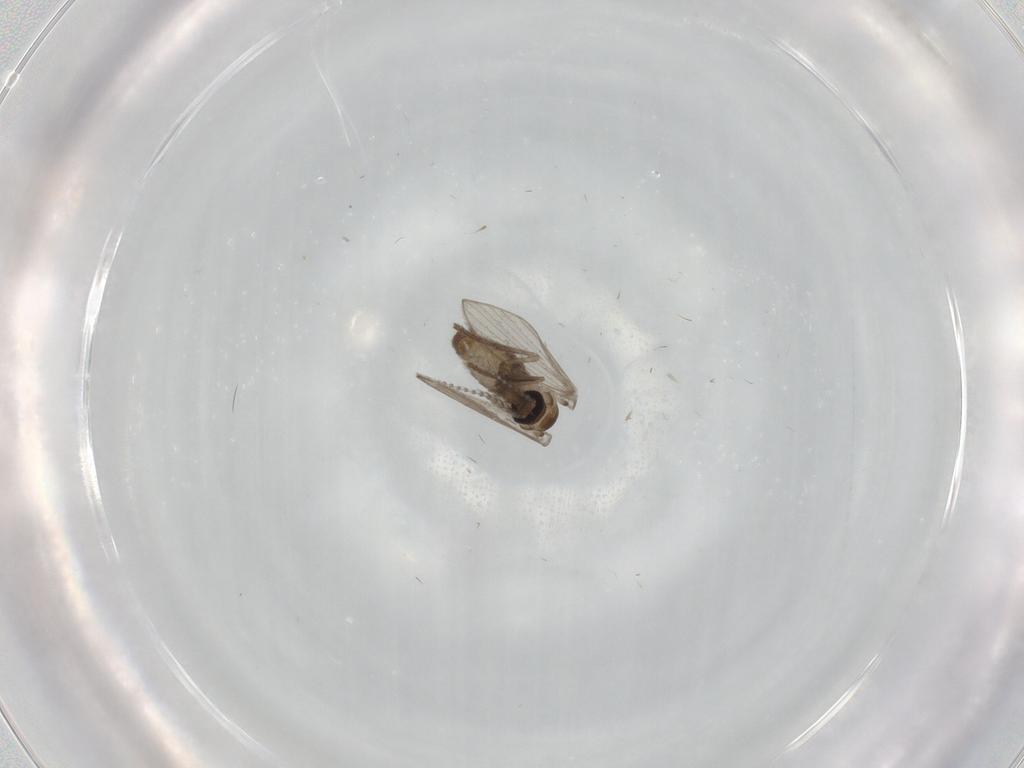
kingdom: Animalia
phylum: Arthropoda
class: Insecta
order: Diptera
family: Psychodidae
